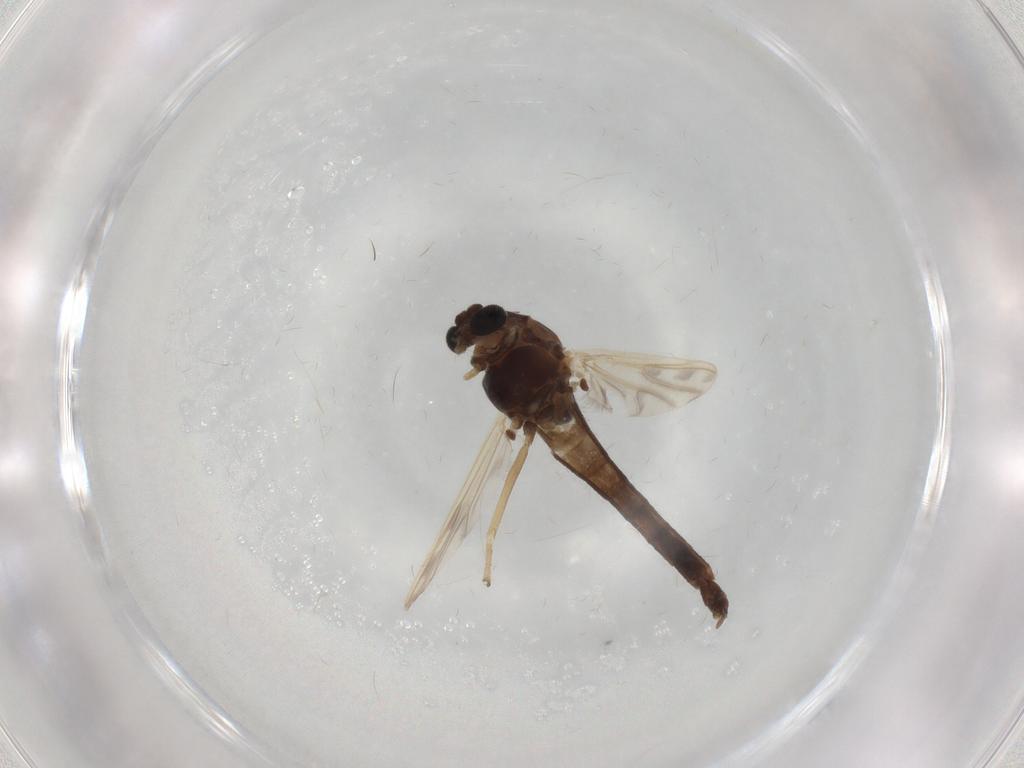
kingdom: Animalia
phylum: Arthropoda
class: Insecta
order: Diptera
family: Chironomidae
